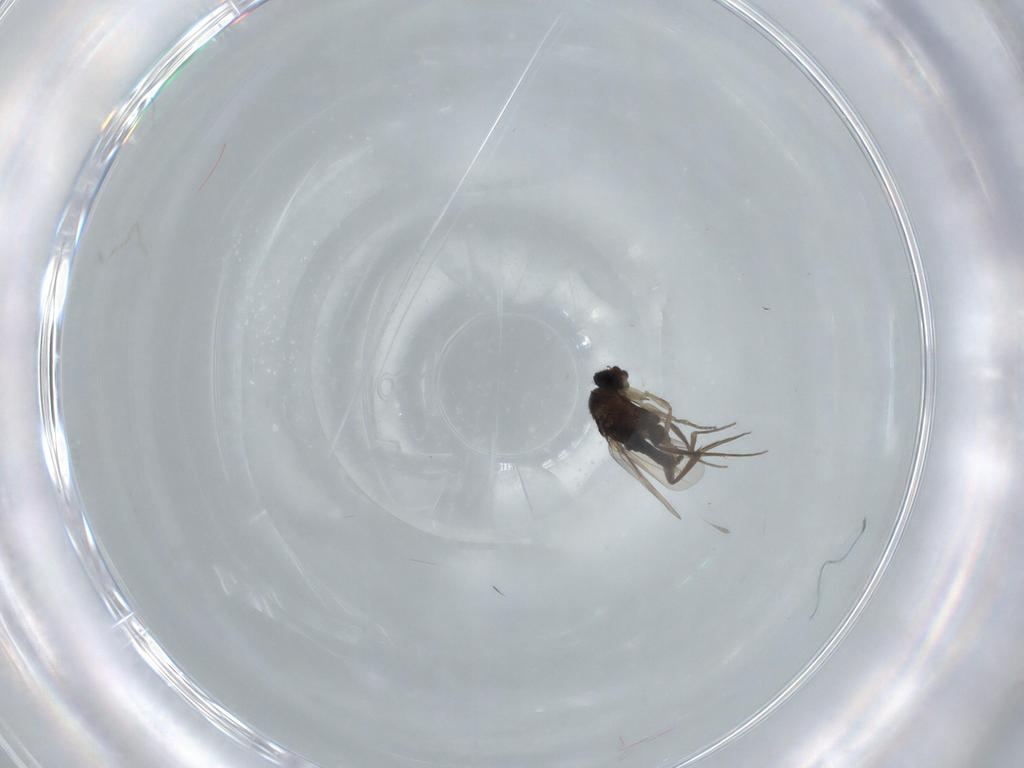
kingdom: Animalia
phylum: Arthropoda
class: Insecta
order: Diptera
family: Phoridae
